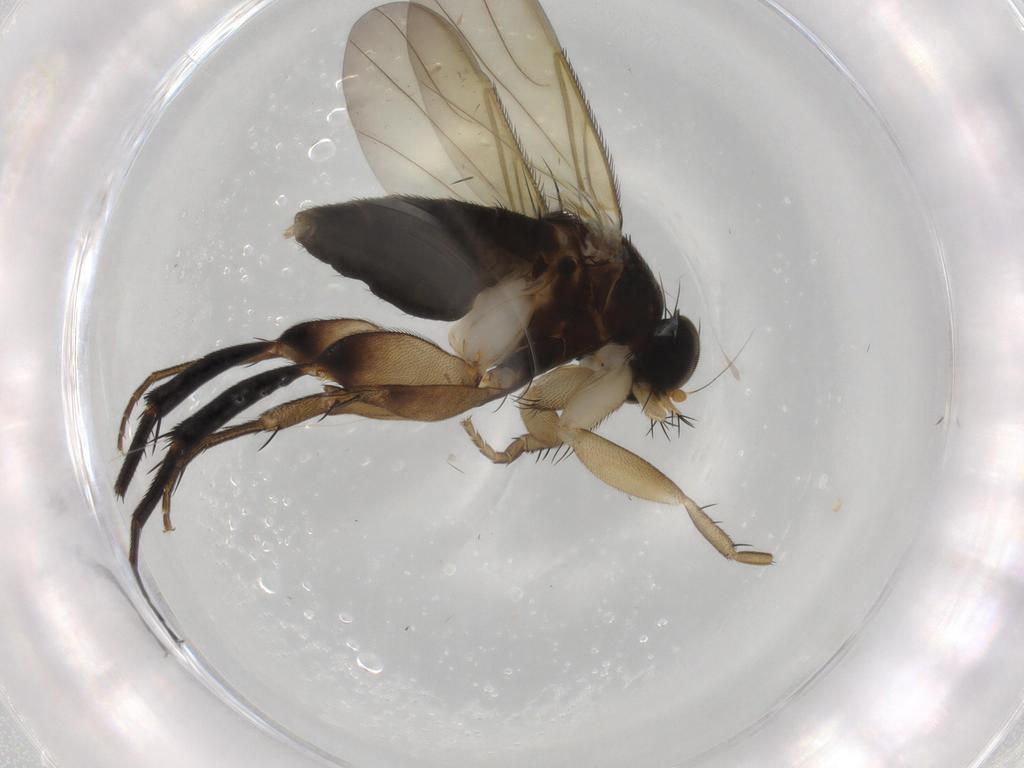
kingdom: Animalia
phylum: Arthropoda
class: Insecta
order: Diptera
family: Phoridae
